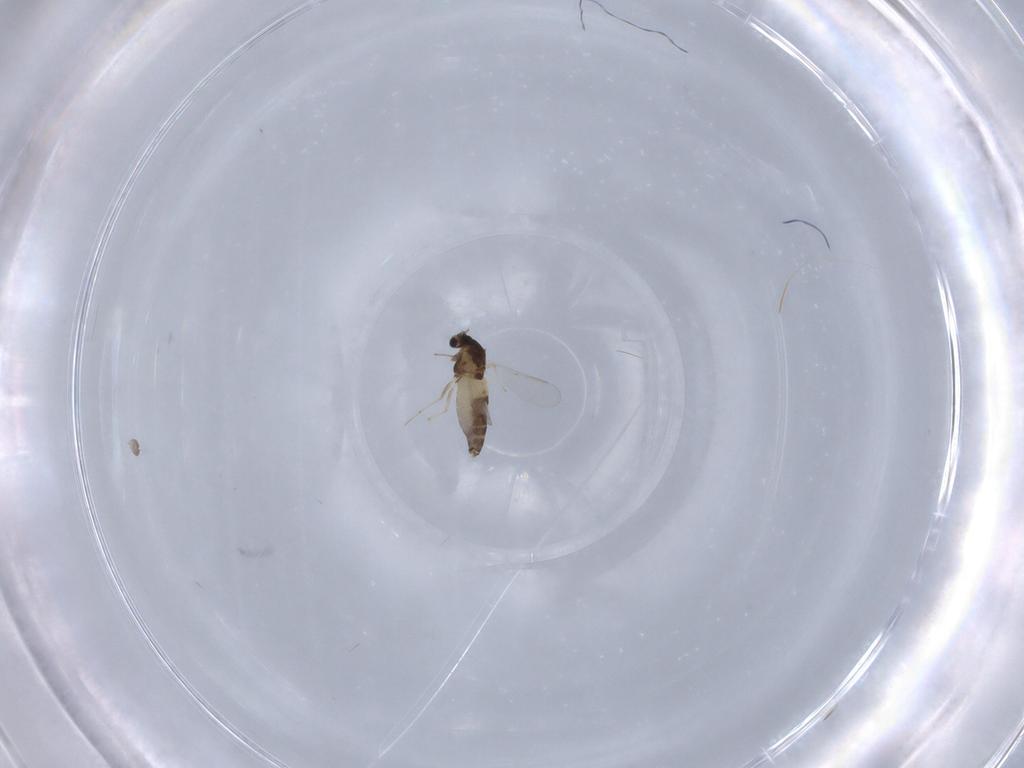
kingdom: Animalia
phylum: Arthropoda
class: Insecta
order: Diptera
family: Chironomidae
